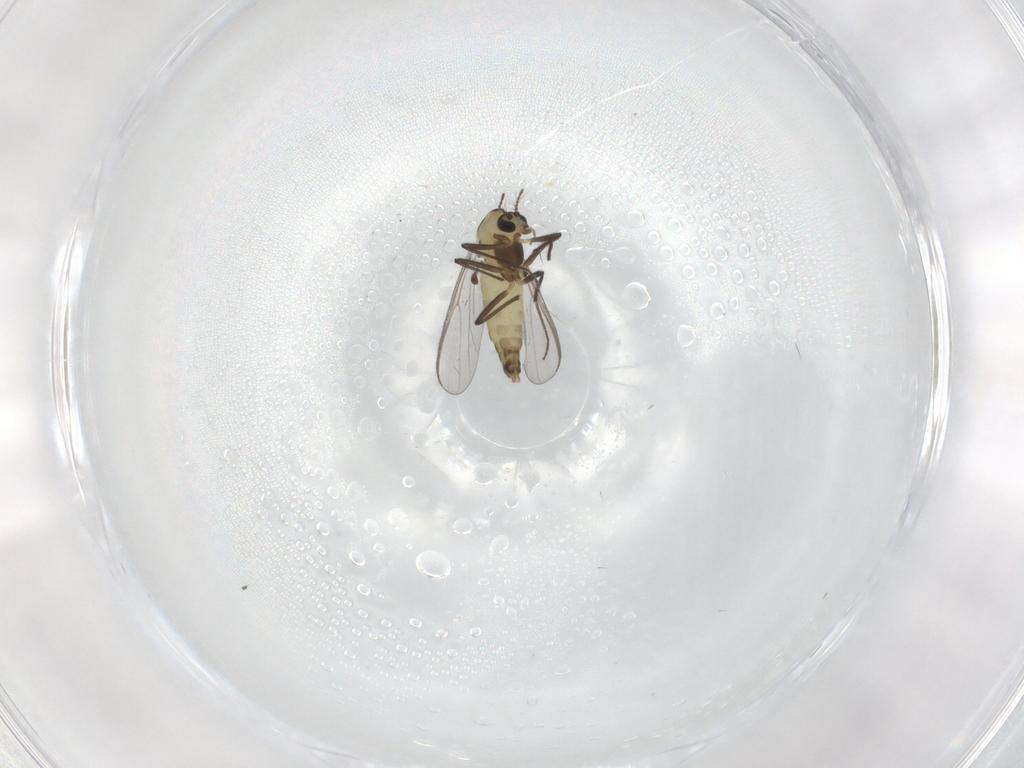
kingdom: Animalia
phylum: Arthropoda
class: Insecta
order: Diptera
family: Chironomidae
